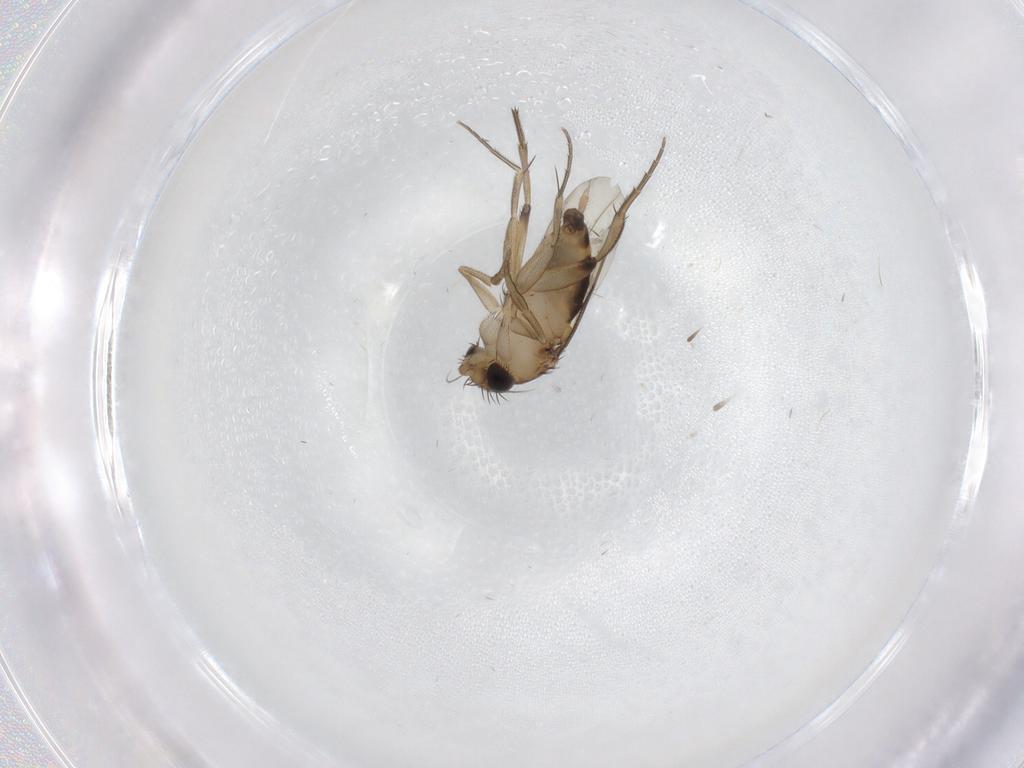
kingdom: Animalia
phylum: Arthropoda
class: Insecta
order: Diptera
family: Phoridae
